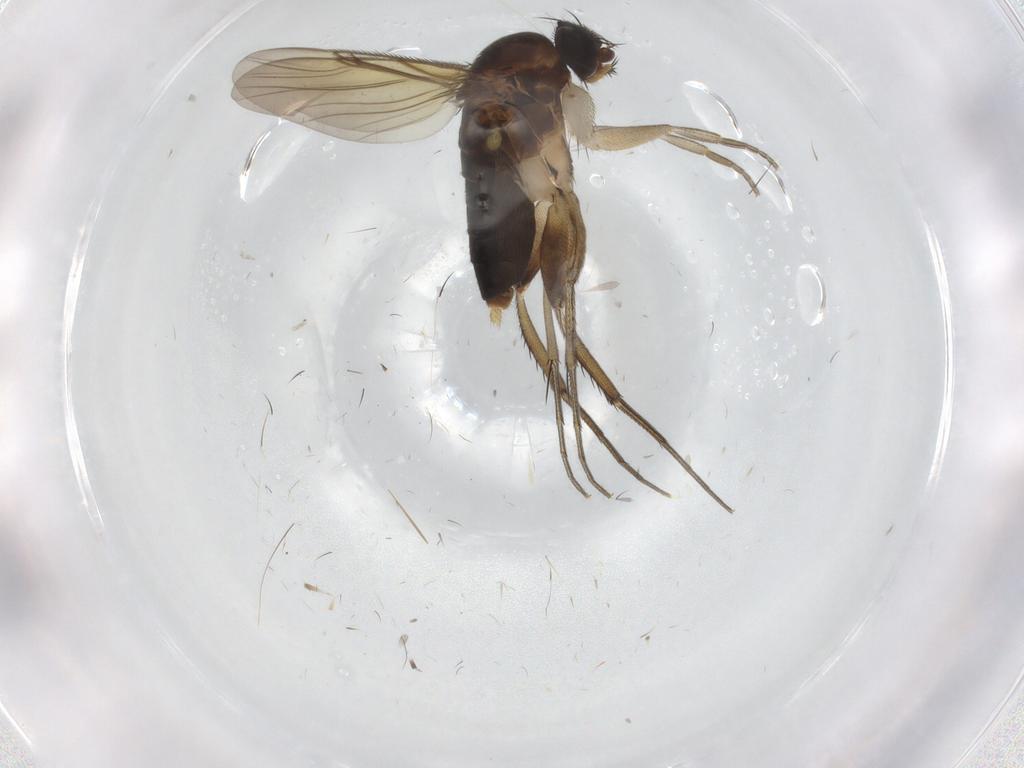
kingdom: Animalia
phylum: Arthropoda
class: Insecta
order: Diptera
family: Phoridae
